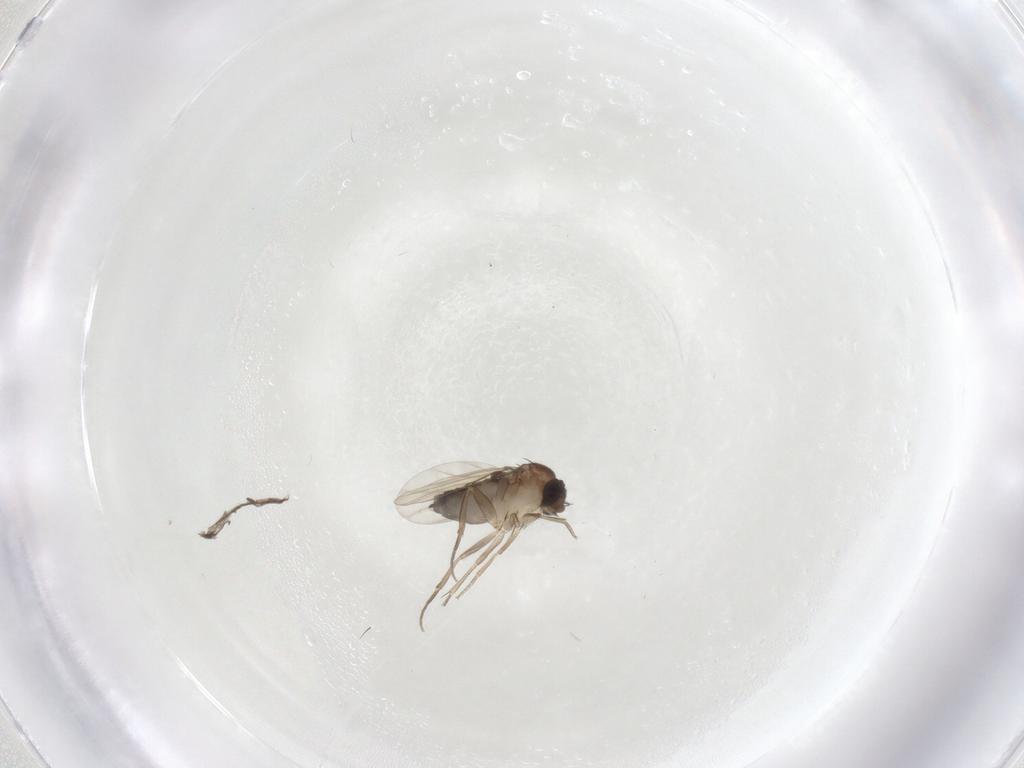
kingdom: Animalia
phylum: Arthropoda
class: Insecta
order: Diptera
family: Phoridae
